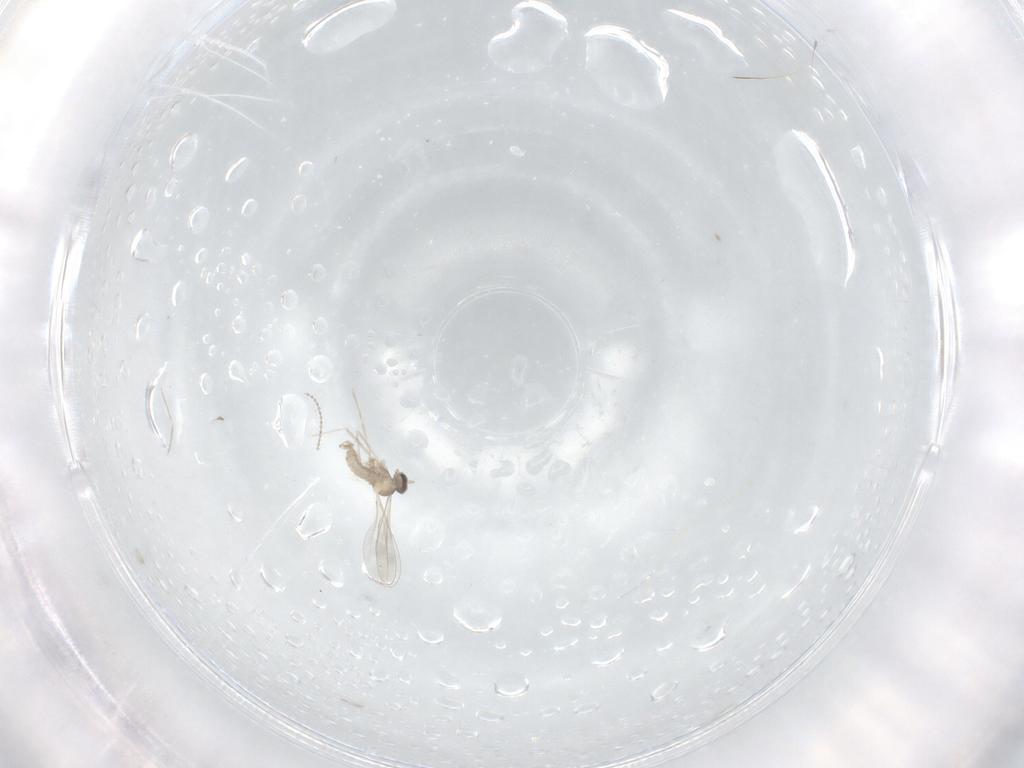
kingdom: Animalia
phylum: Arthropoda
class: Insecta
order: Diptera
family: Cecidomyiidae
